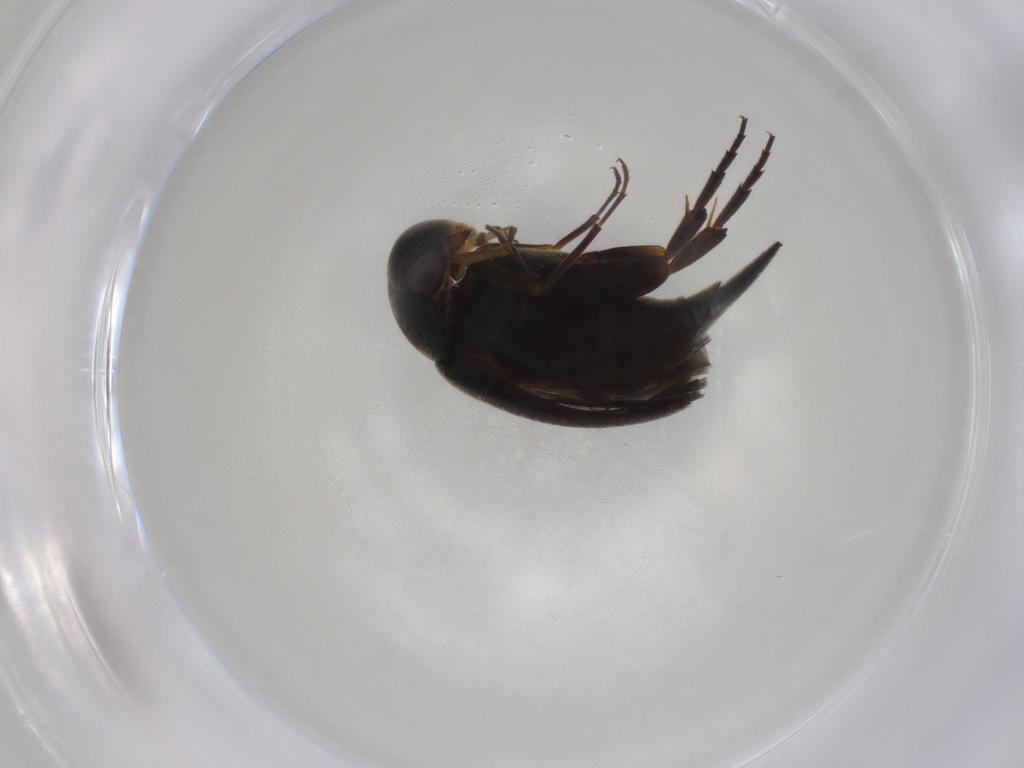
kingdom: Animalia
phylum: Arthropoda
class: Insecta
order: Coleoptera
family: Mordellidae
